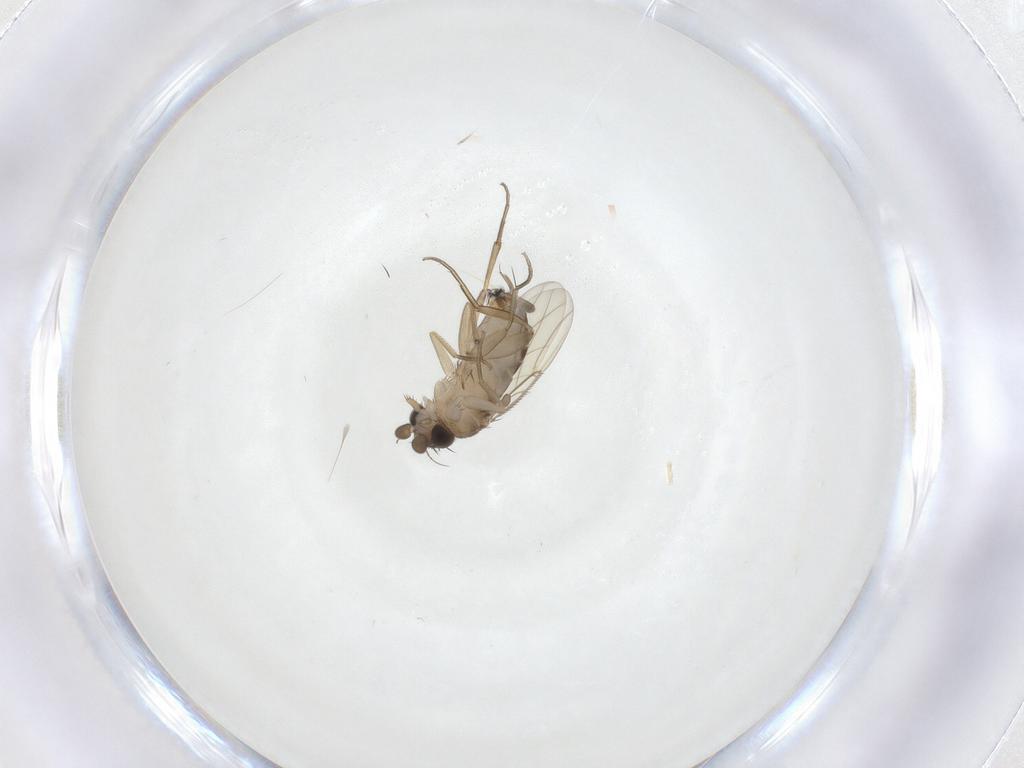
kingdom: Animalia
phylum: Arthropoda
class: Insecta
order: Diptera
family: Phoridae
